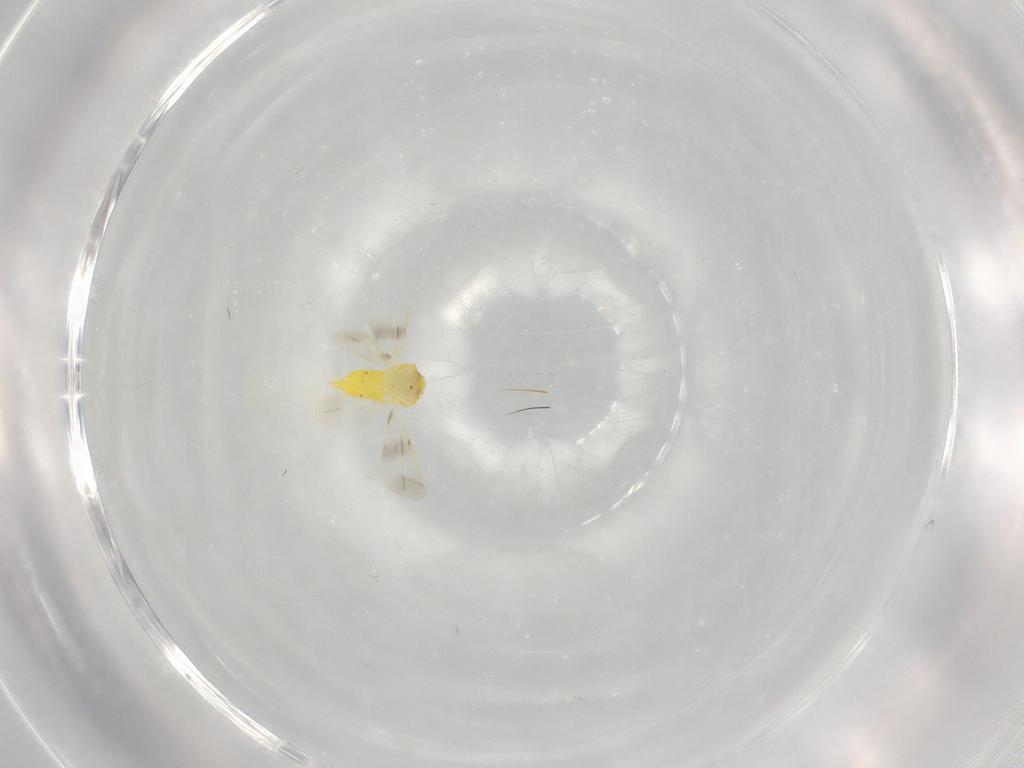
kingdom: Animalia
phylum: Arthropoda
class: Insecta
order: Hemiptera
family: Aleyrodidae
